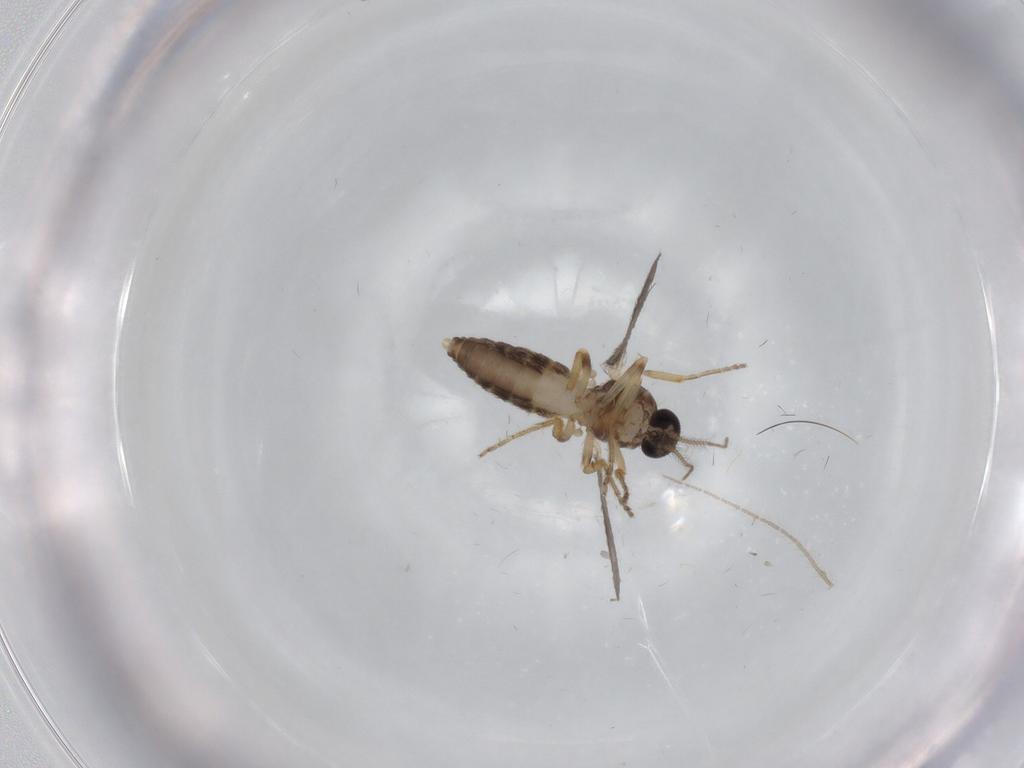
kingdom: Animalia
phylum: Arthropoda
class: Insecta
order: Diptera
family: Ceratopogonidae
